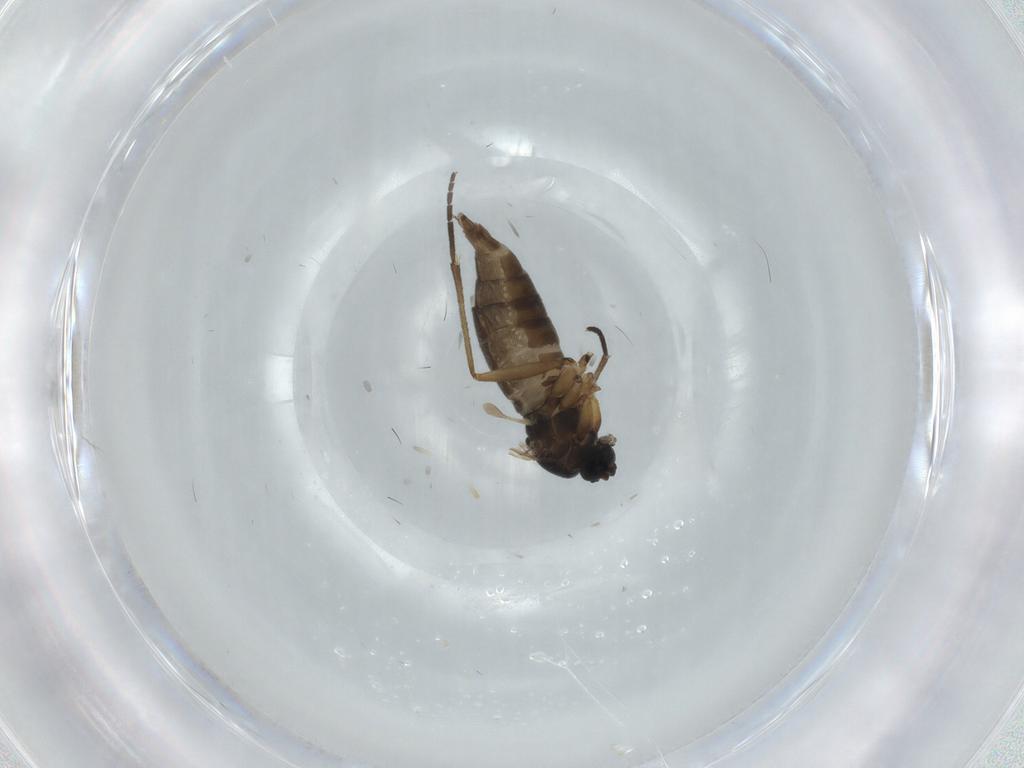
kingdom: Animalia
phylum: Arthropoda
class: Insecta
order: Diptera
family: Sciaridae
